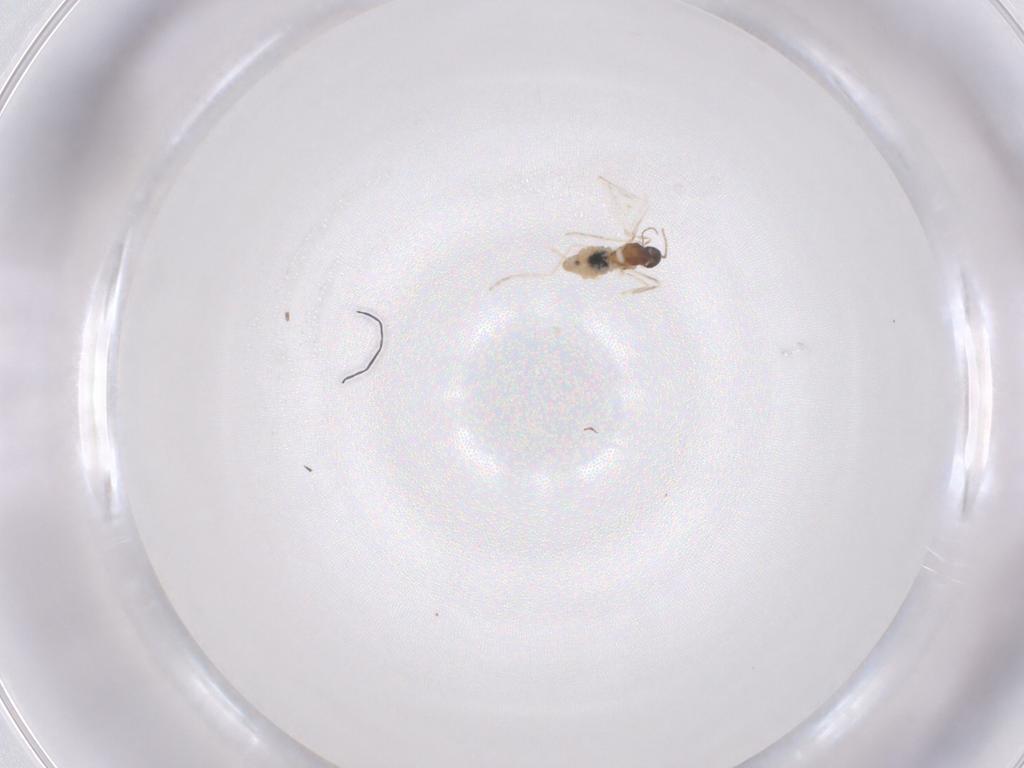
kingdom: Animalia
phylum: Arthropoda
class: Insecta
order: Diptera
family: Cecidomyiidae
